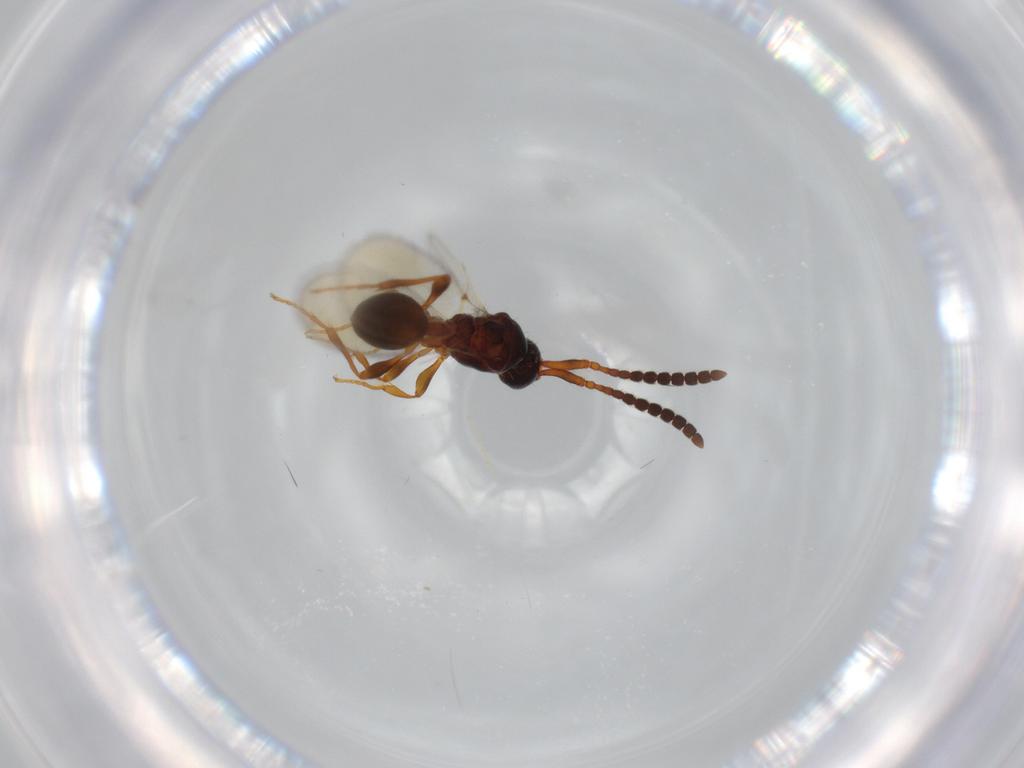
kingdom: Animalia
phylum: Arthropoda
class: Insecta
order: Hymenoptera
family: Diapriidae
